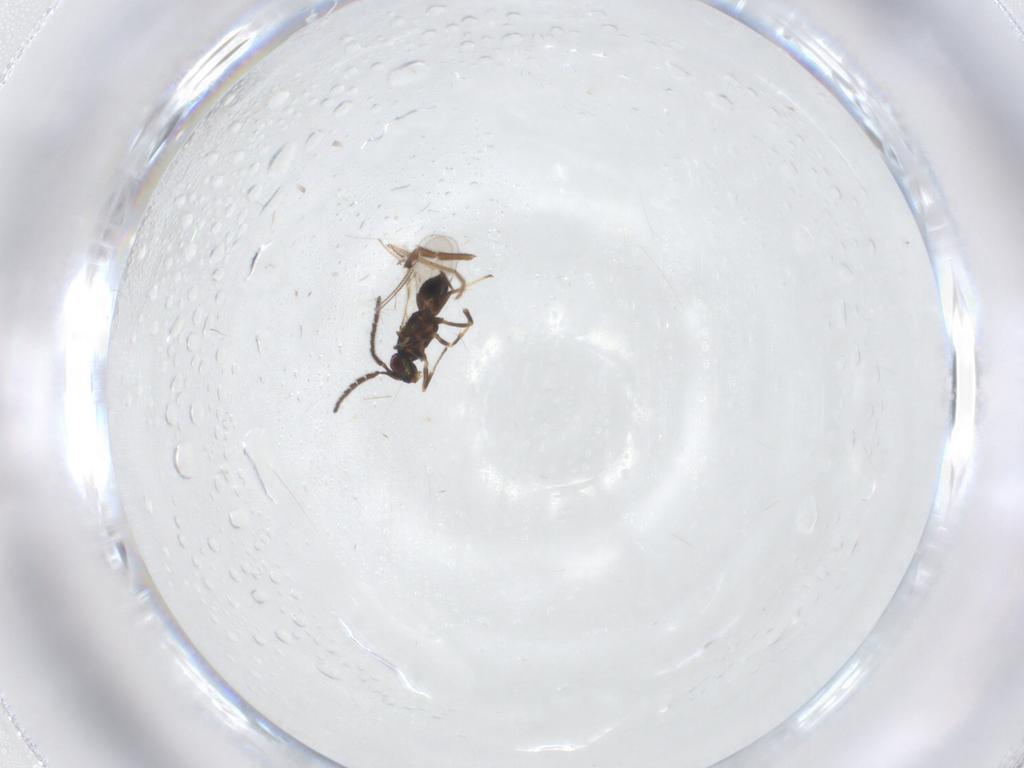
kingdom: Animalia
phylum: Arthropoda
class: Insecta
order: Hymenoptera
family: Encyrtidae
